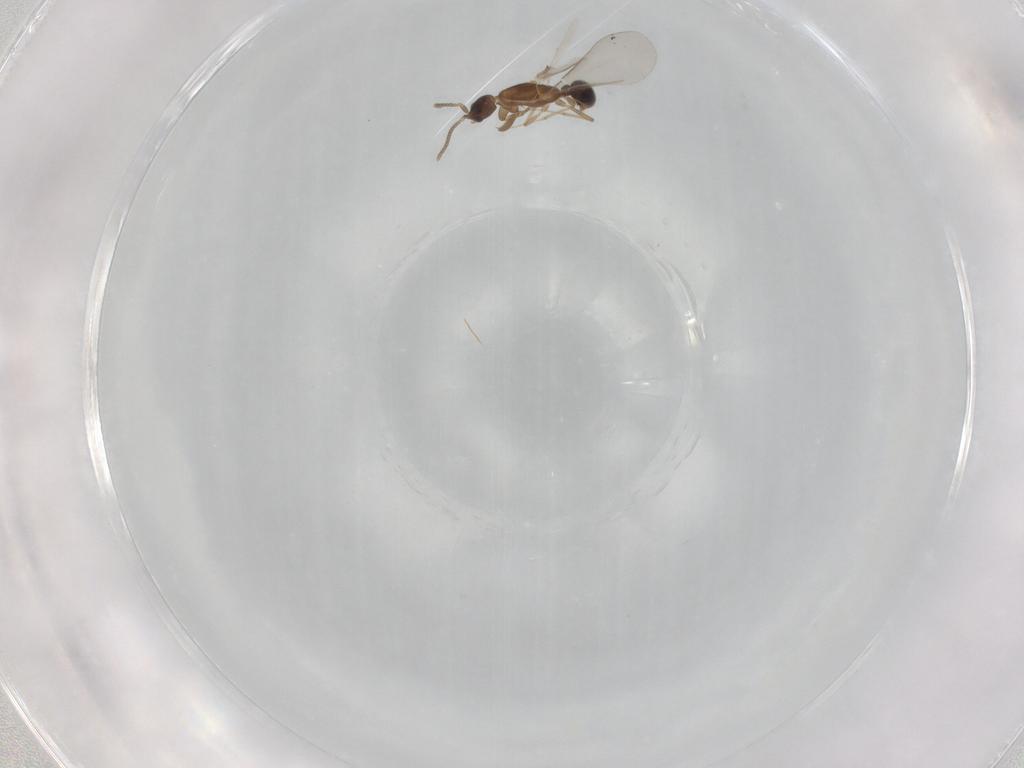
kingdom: Animalia
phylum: Arthropoda
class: Insecta
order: Hymenoptera
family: Formicidae
